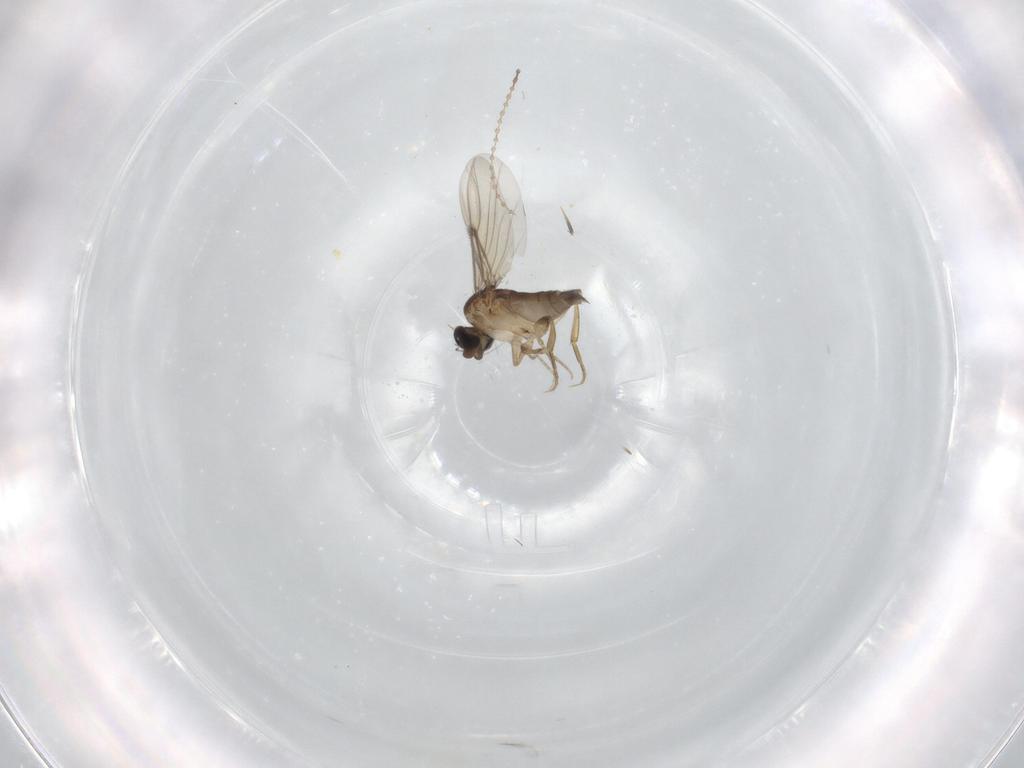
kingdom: Animalia
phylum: Arthropoda
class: Insecta
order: Diptera
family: Phoridae
